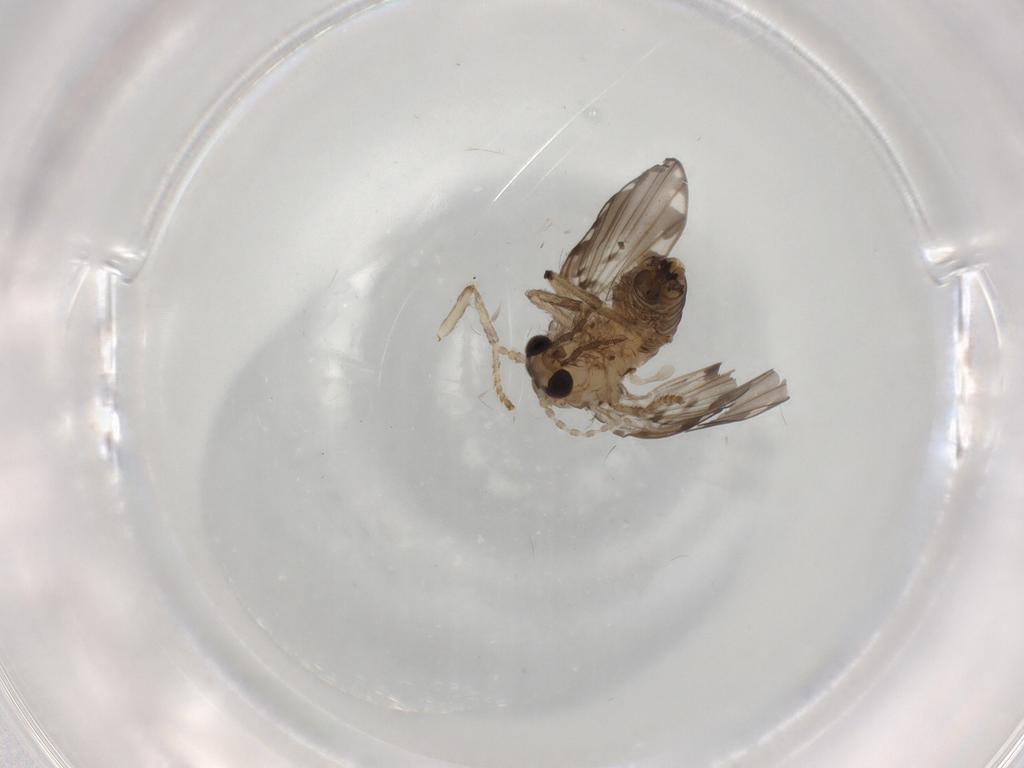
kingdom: Animalia
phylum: Arthropoda
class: Insecta
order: Diptera
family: Psychodidae
